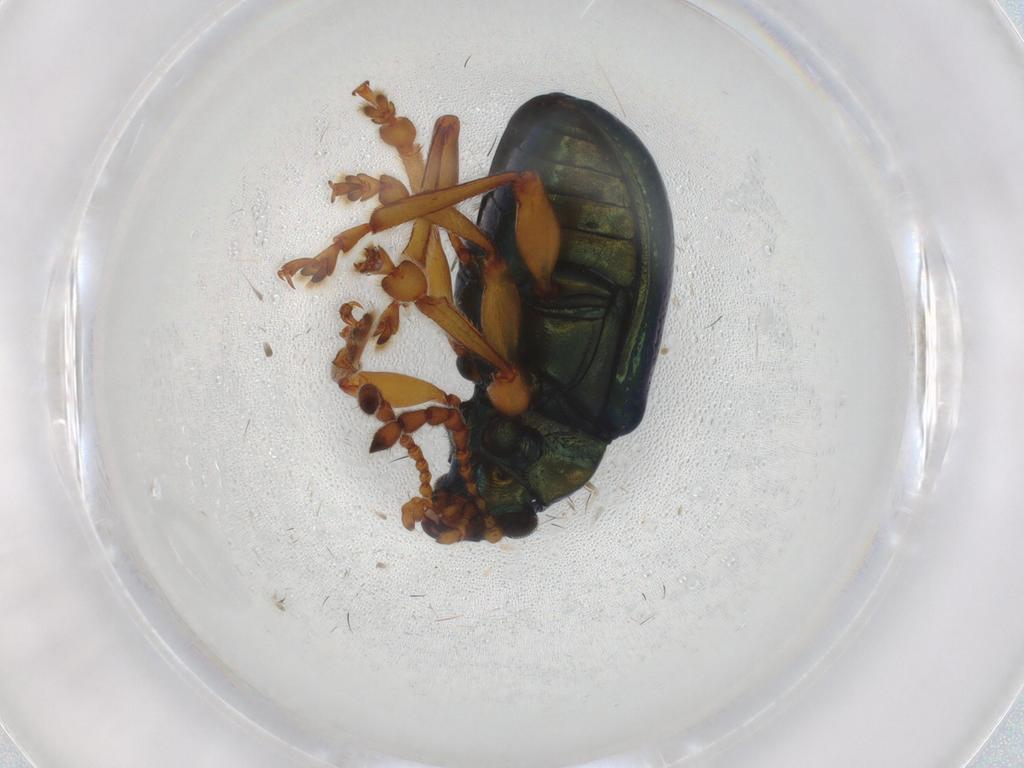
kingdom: Animalia
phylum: Arthropoda
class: Insecta
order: Coleoptera
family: Chrysomelidae
